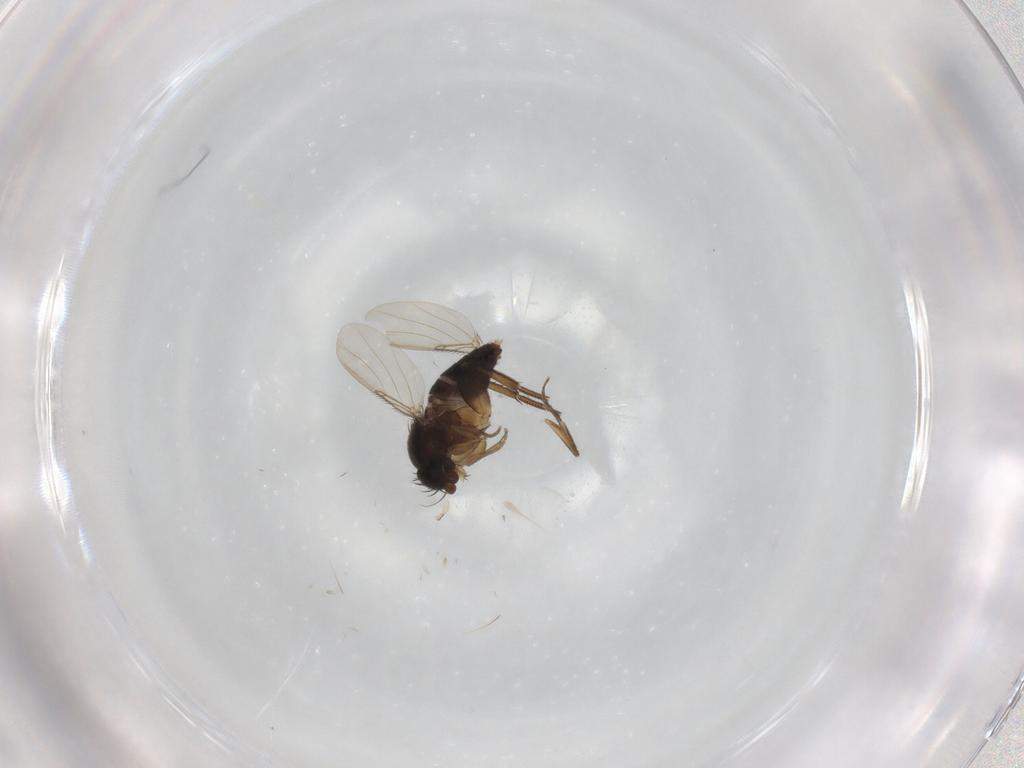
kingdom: Animalia
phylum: Arthropoda
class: Insecta
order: Diptera
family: Phoridae
